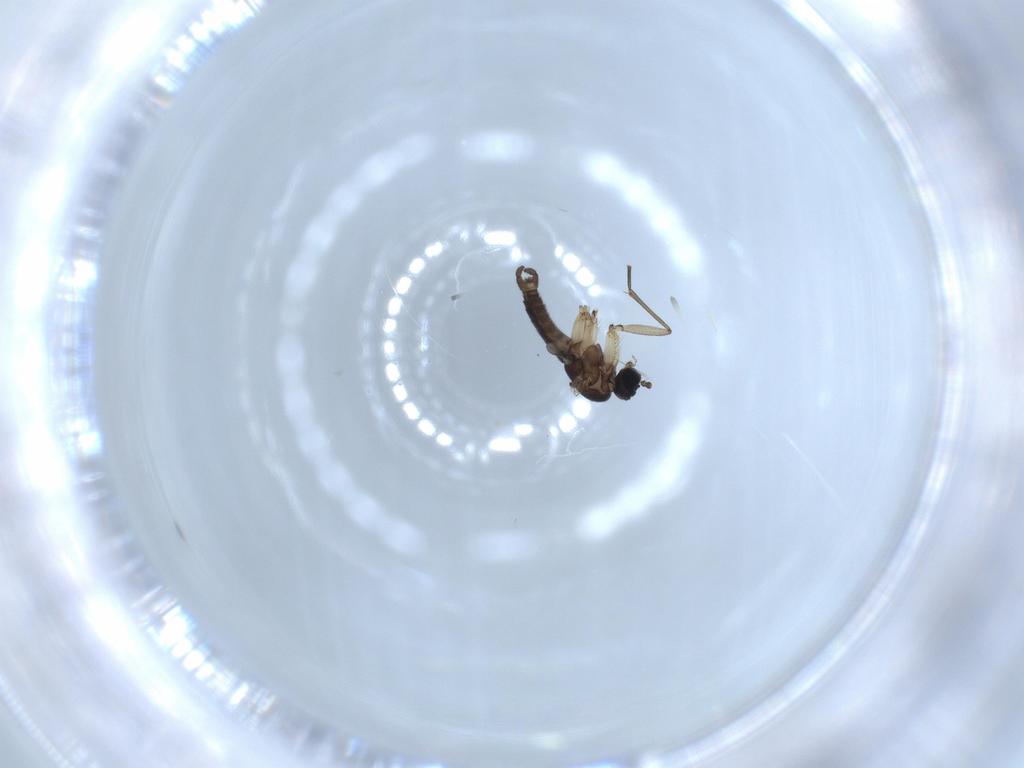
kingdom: Animalia
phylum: Arthropoda
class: Insecta
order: Diptera
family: Sciaridae
